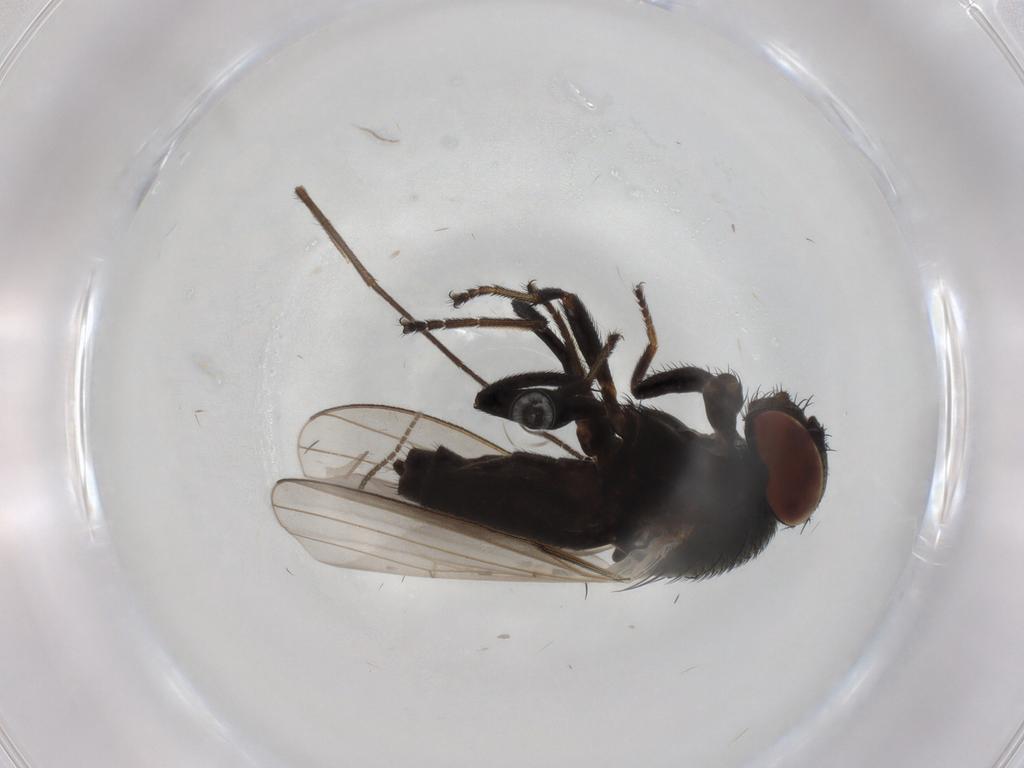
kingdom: Animalia
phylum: Arthropoda
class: Insecta
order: Diptera
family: Milichiidae
